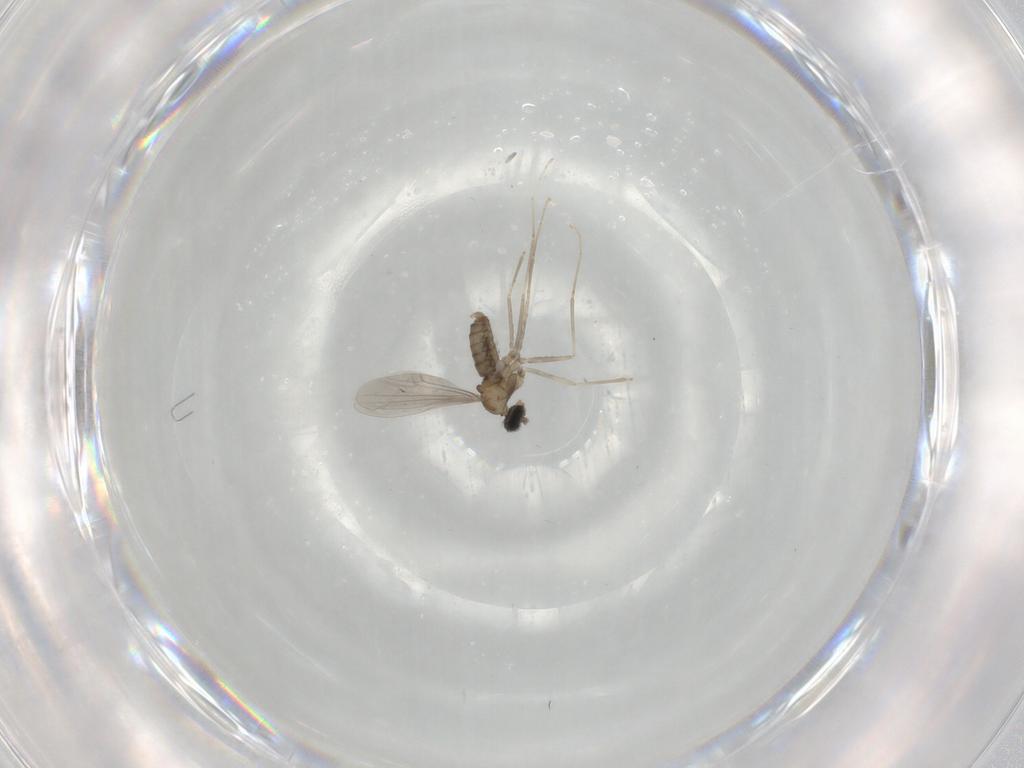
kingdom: Animalia
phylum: Arthropoda
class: Insecta
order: Diptera
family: Cecidomyiidae
